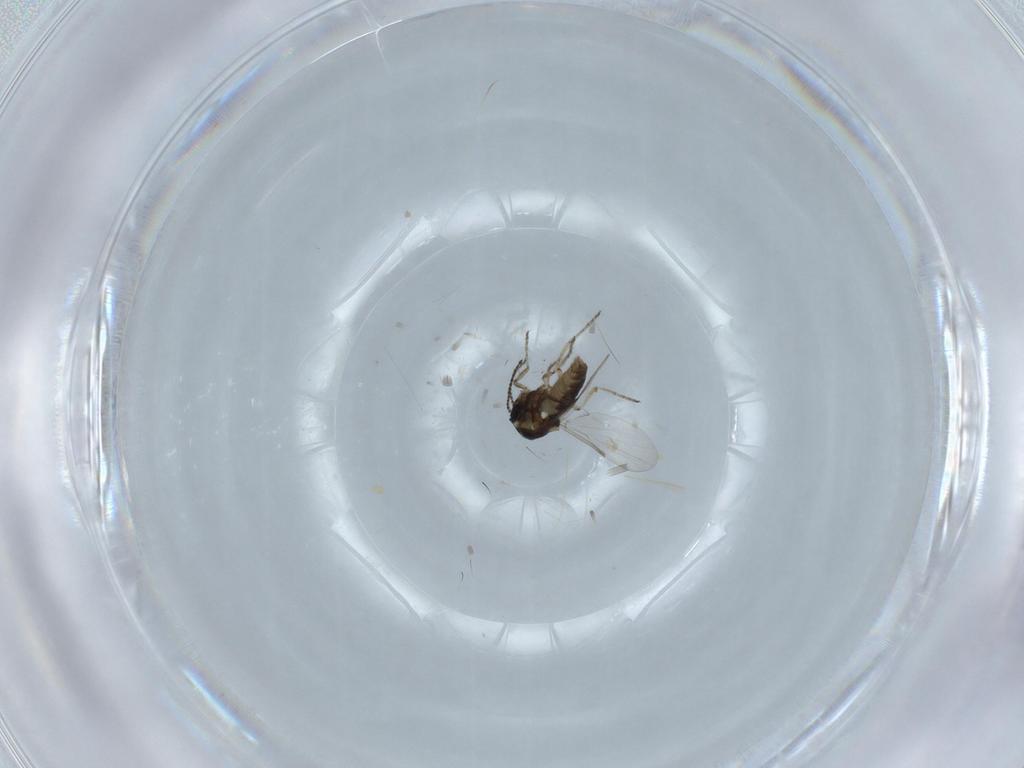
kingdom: Animalia
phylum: Arthropoda
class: Insecta
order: Diptera
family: Ceratopogonidae
